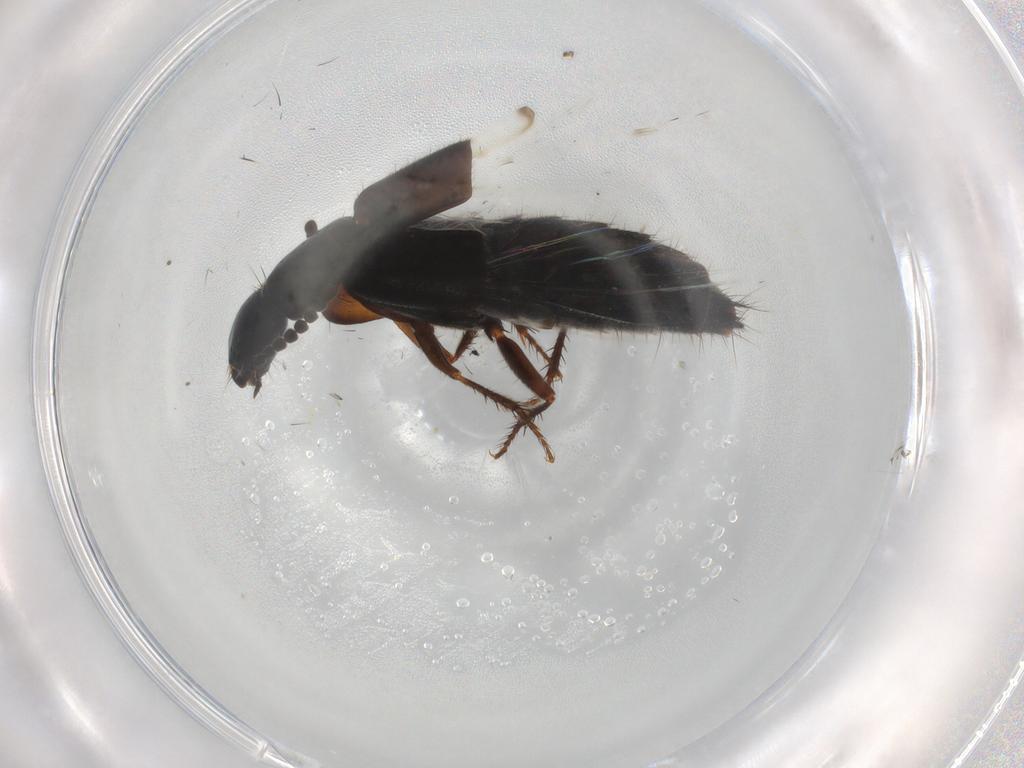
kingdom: Animalia
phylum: Arthropoda
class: Insecta
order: Coleoptera
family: Staphylinidae
